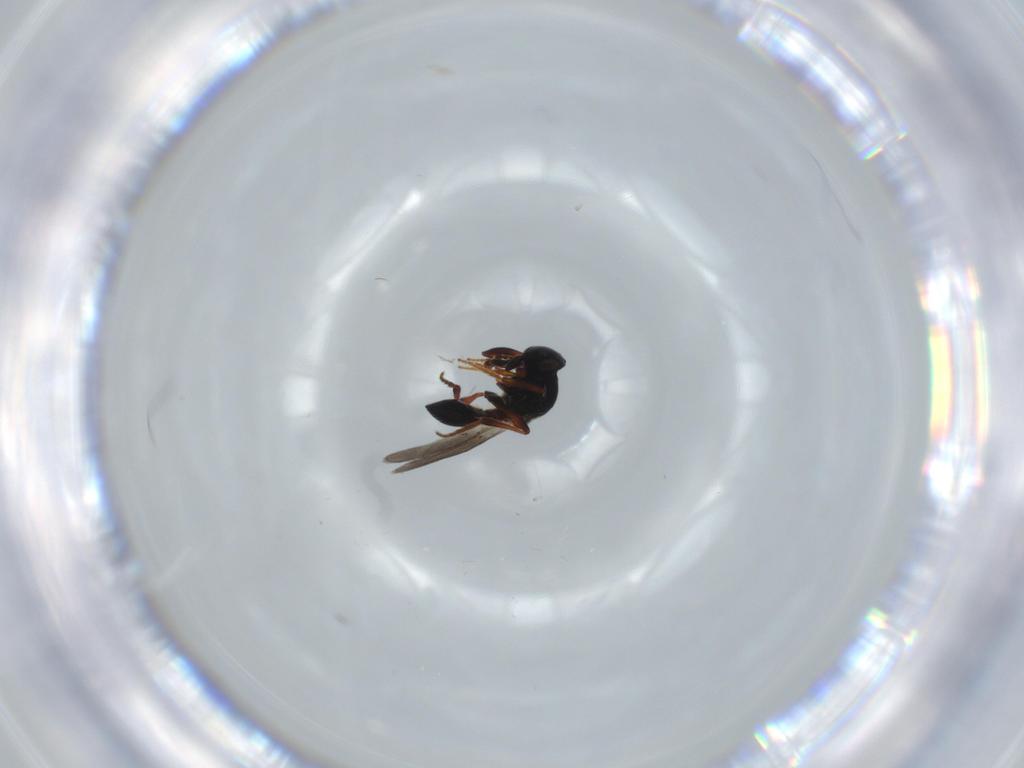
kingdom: Animalia
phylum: Arthropoda
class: Insecta
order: Hymenoptera
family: Platygastridae
